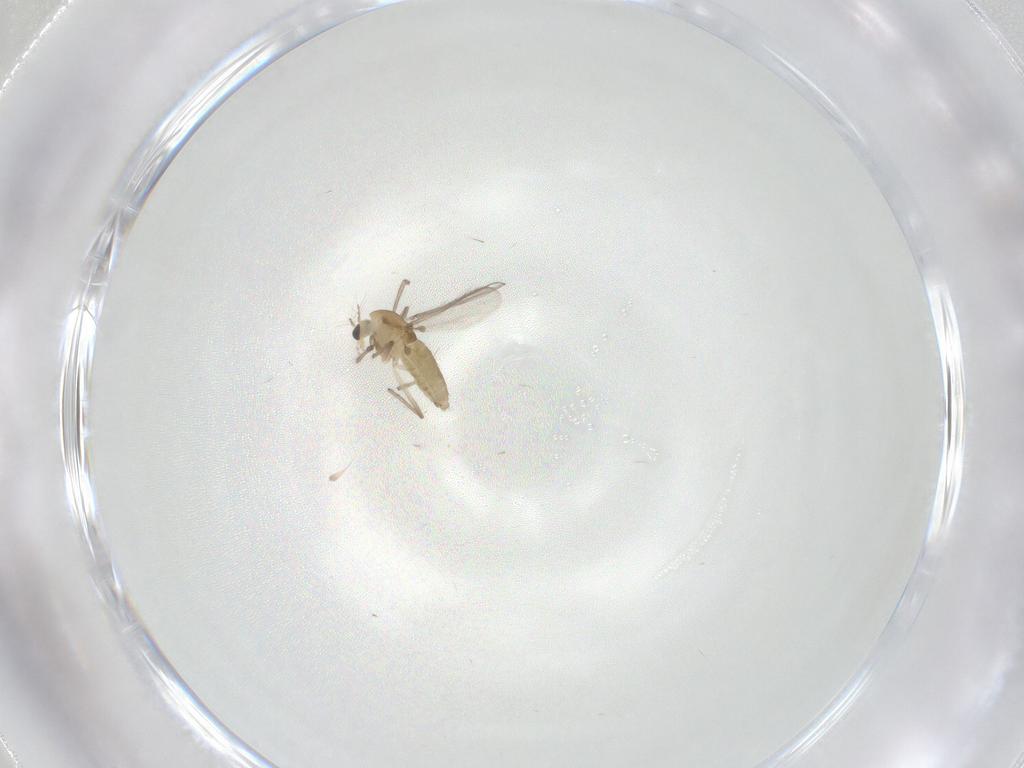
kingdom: Animalia
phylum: Arthropoda
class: Insecta
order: Diptera
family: Chironomidae
